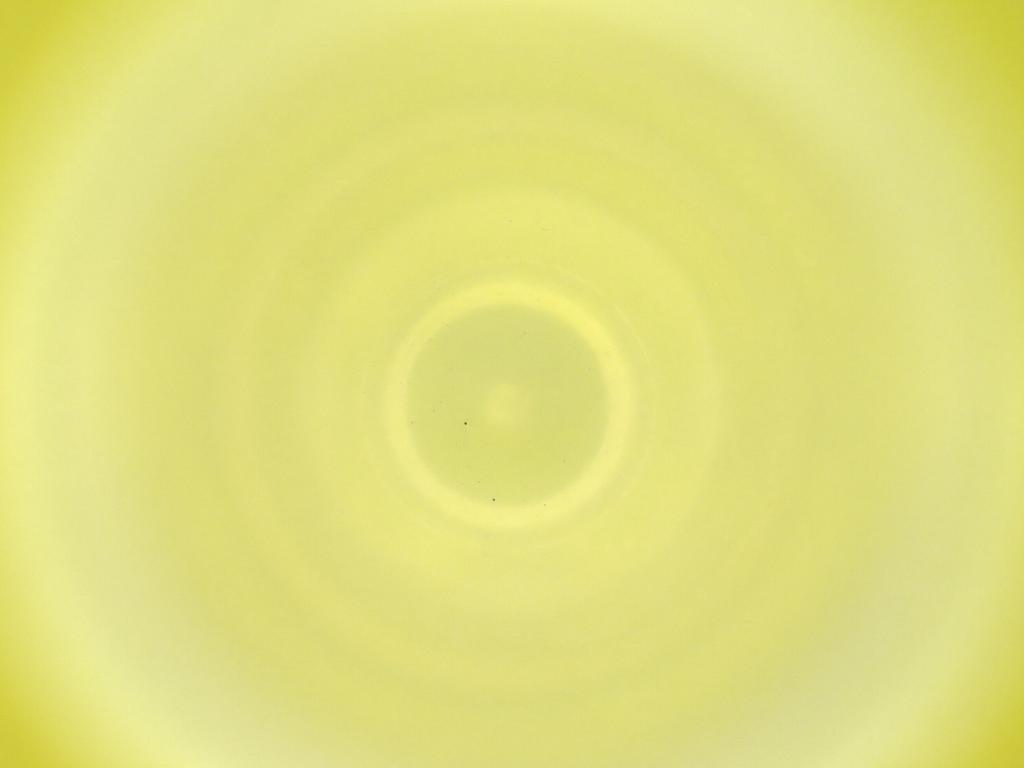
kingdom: Animalia
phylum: Arthropoda
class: Insecta
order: Diptera
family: Cecidomyiidae
